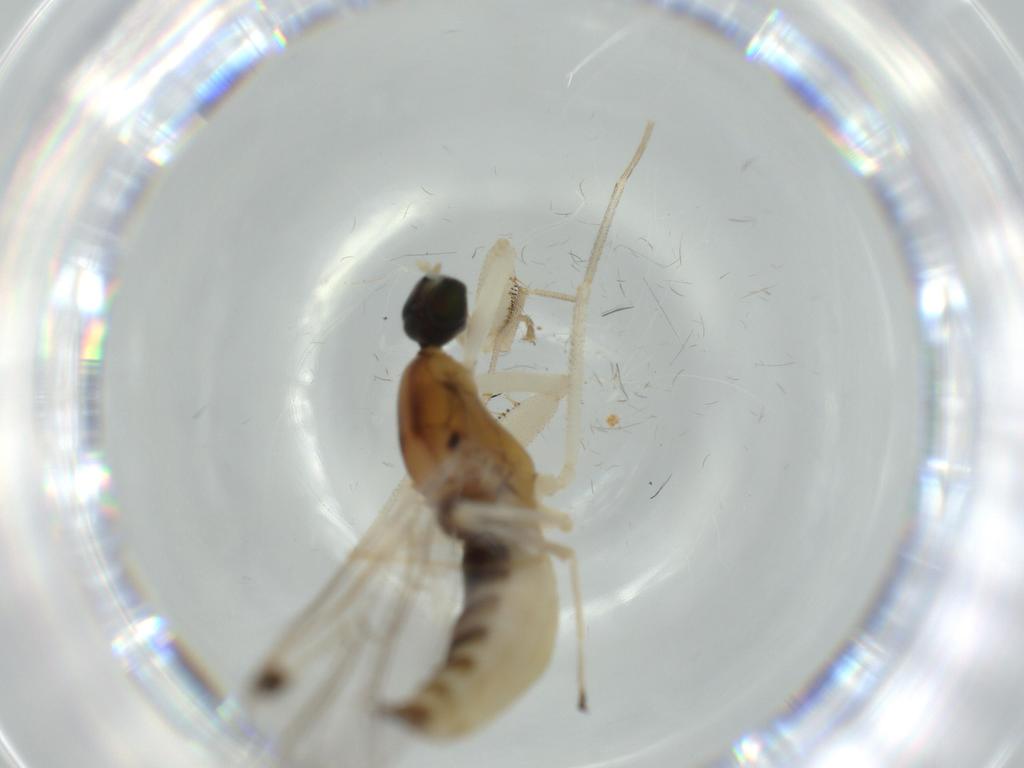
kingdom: Animalia
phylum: Arthropoda
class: Insecta
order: Diptera
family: Empididae
